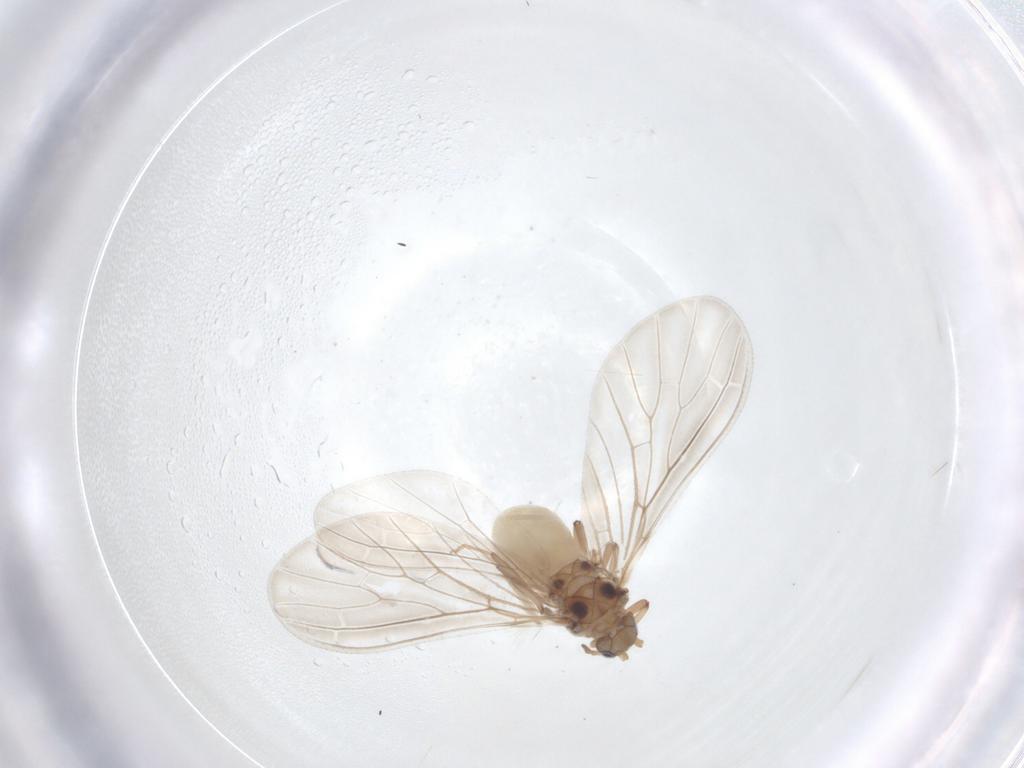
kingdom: Animalia
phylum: Arthropoda
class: Insecta
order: Neuroptera
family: Coniopterygidae
